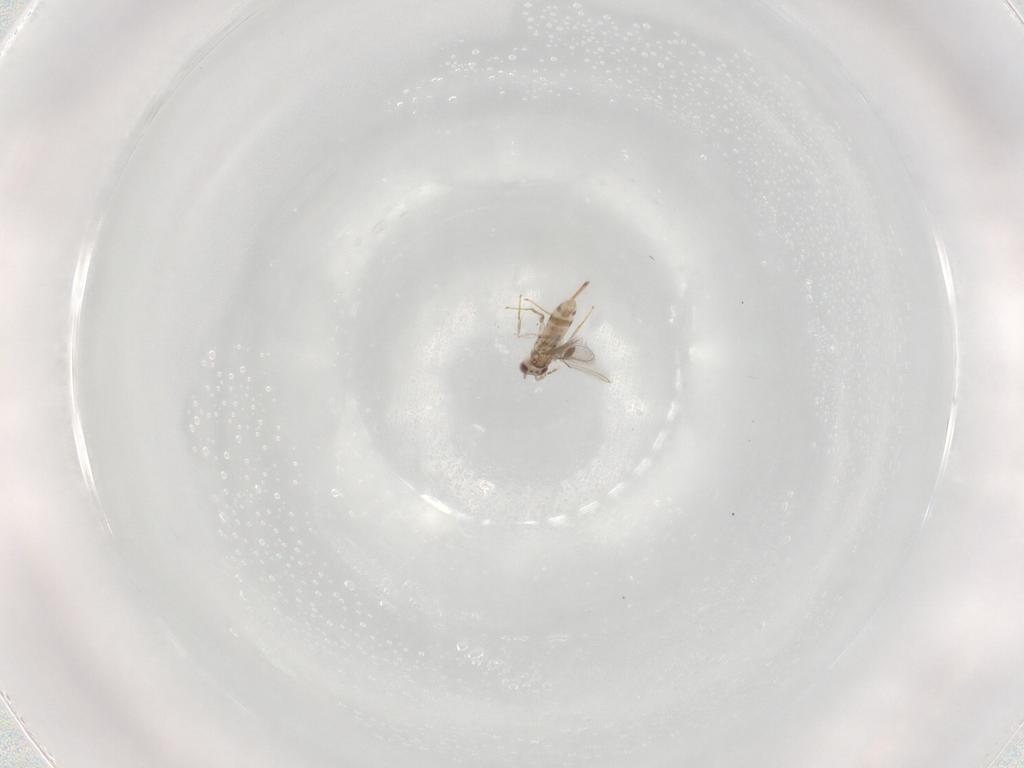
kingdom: Animalia
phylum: Arthropoda
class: Insecta
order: Hymenoptera
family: Mymaridae
